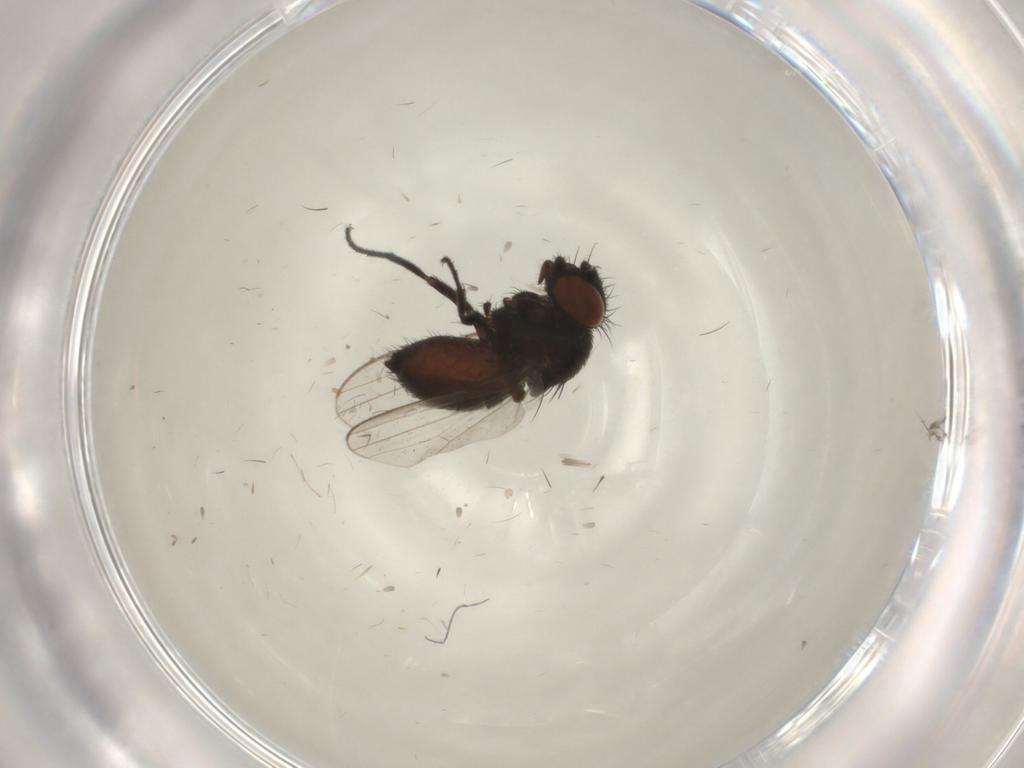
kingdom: Animalia
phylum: Arthropoda
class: Insecta
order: Diptera
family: Milichiidae
